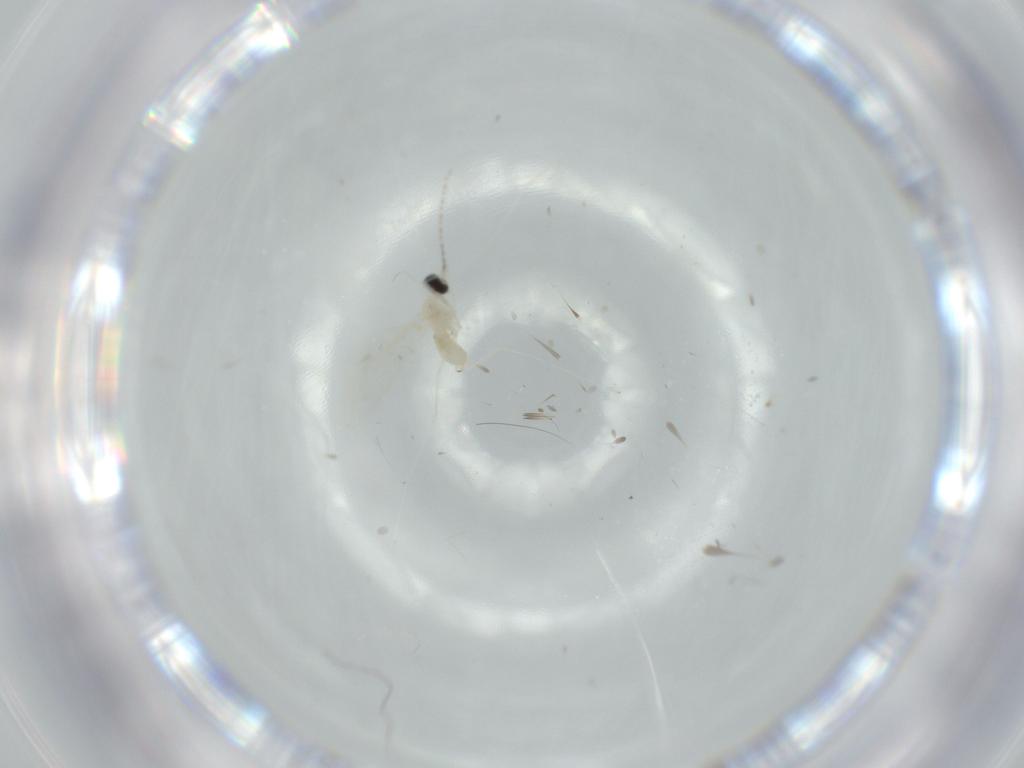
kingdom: Animalia
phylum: Arthropoda
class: Insecta
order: Diptera
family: Cecidomyiidae
